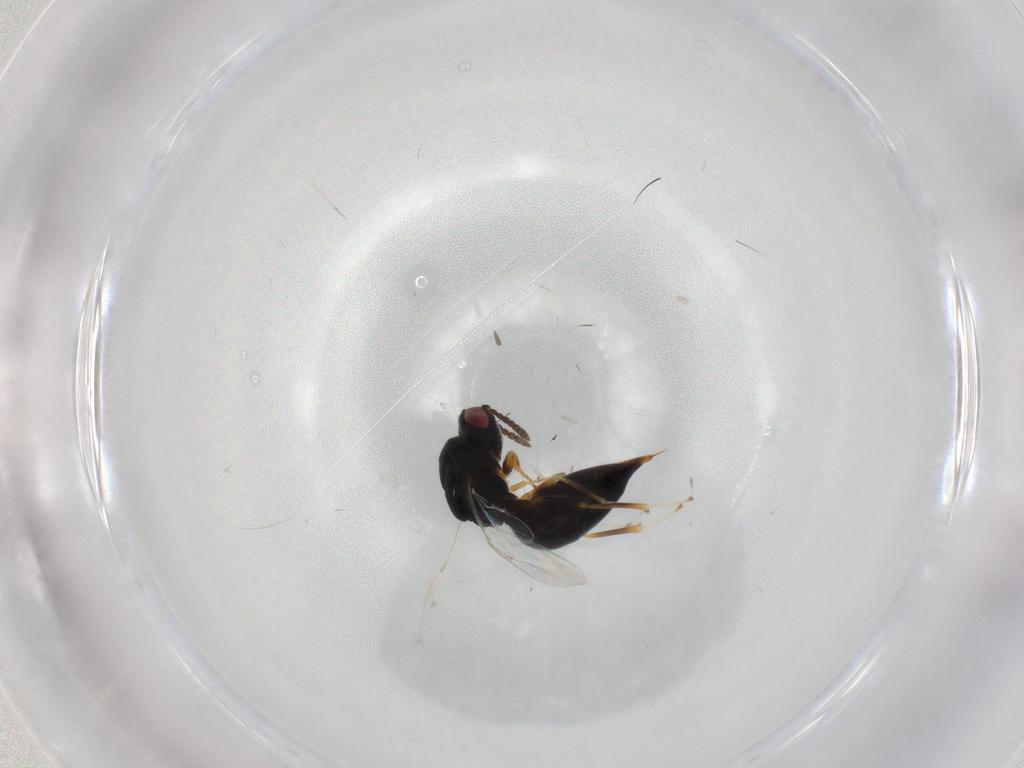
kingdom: Animalia
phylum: Arthropoda
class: Insecta
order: Hymenoptera
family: Eurytomidae
